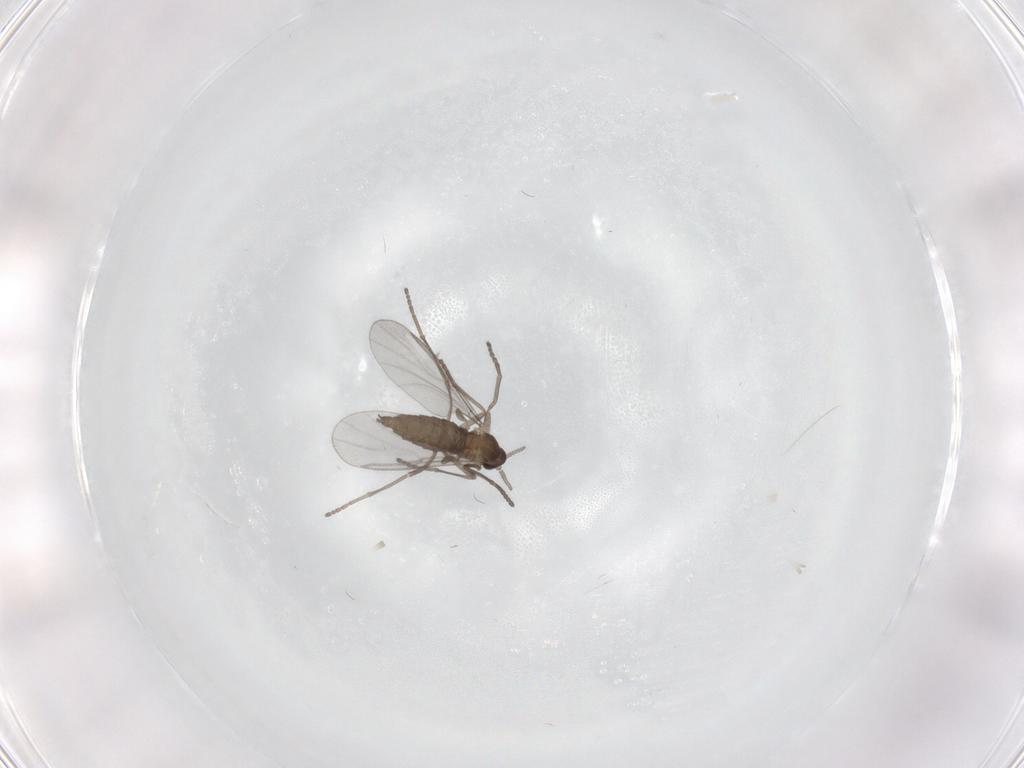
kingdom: Animalia
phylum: Arthropoda
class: Insecta
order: Diptera
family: Cecidomyiidae
